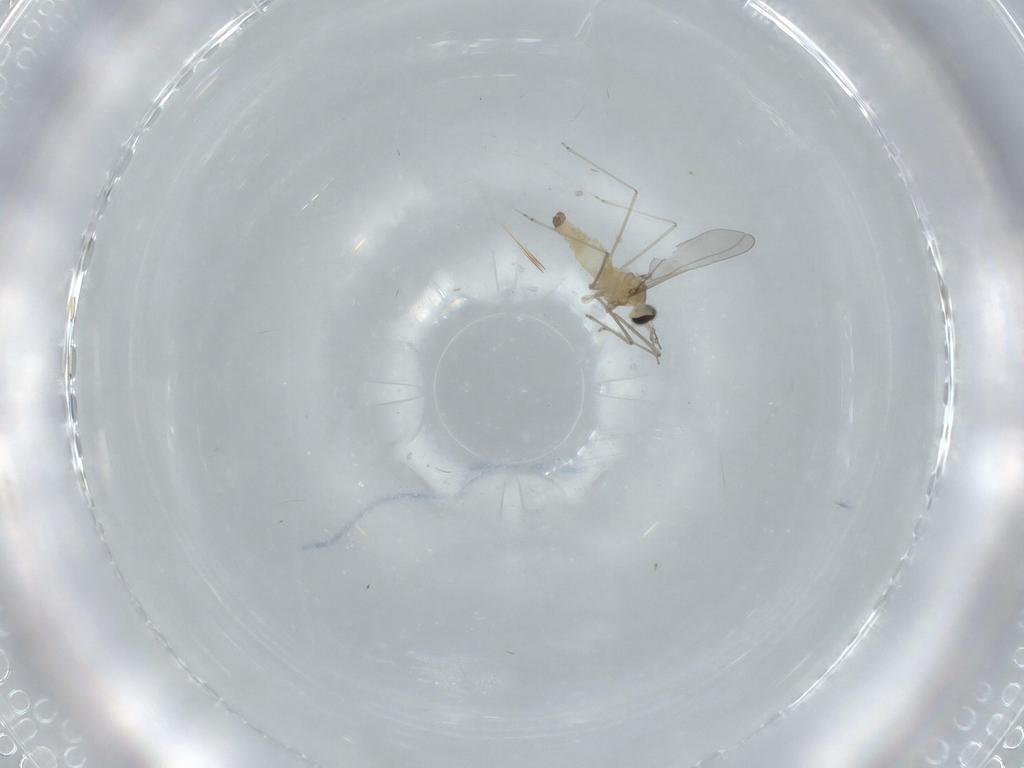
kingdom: Animalia
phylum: Arthropoda
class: Insecta
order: Diptera
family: Cecidomyiidae
